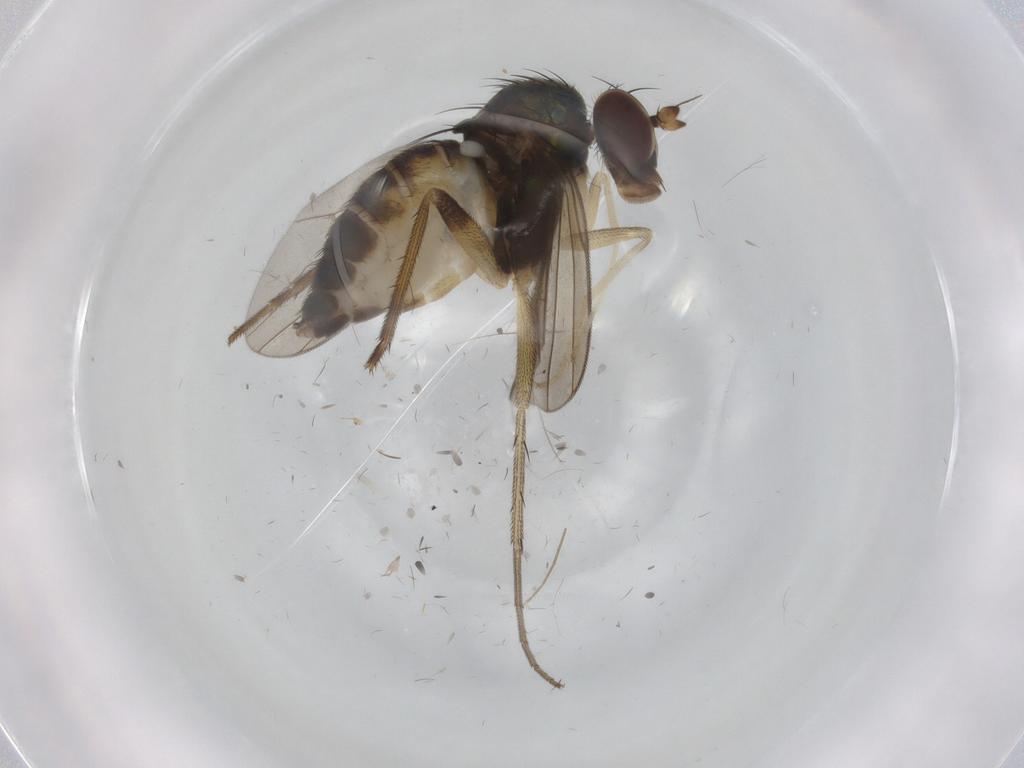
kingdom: Animalia
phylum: Arthropoda
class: Insecta
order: Diptera
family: Dolichopodidae
